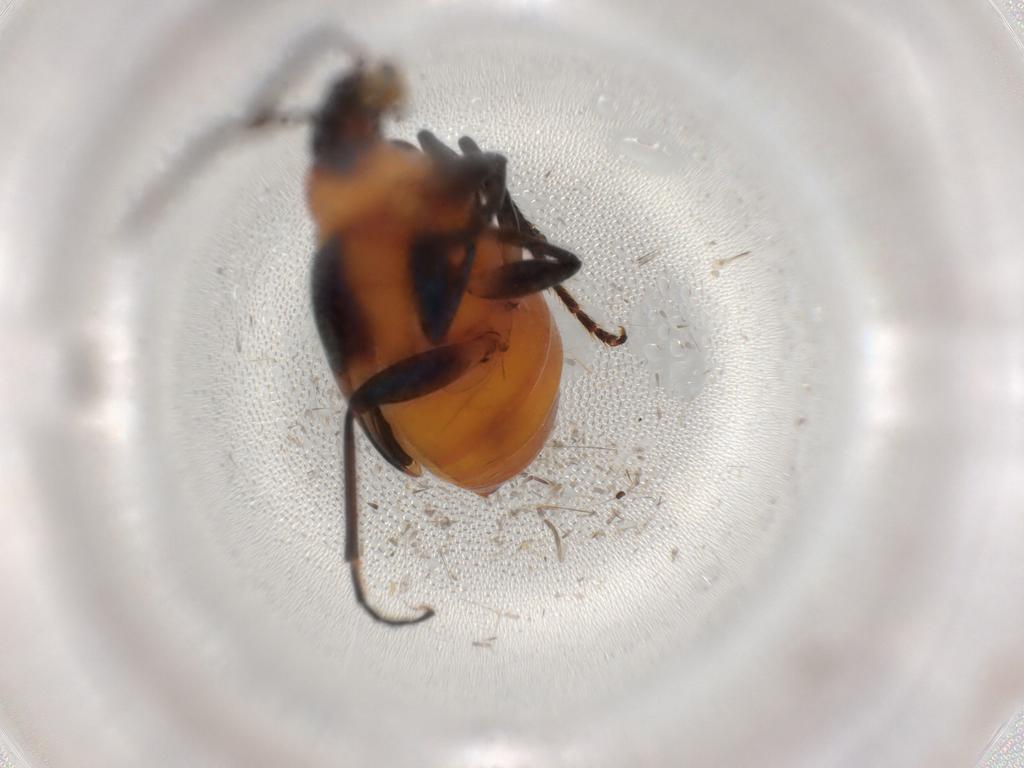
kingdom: Animalia
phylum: Arthropoda
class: Insecta
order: Coleoptera
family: Carabidae
